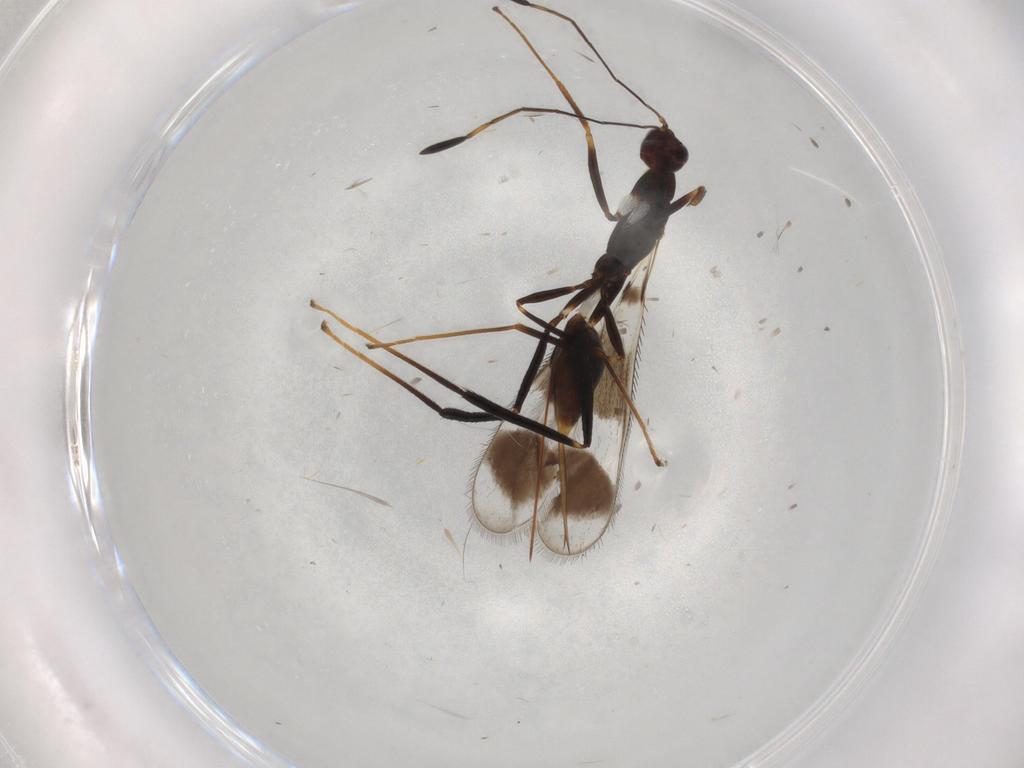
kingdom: Animalia
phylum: Arthropoda
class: Insecta
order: Hymenoptera
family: Mymaridae
